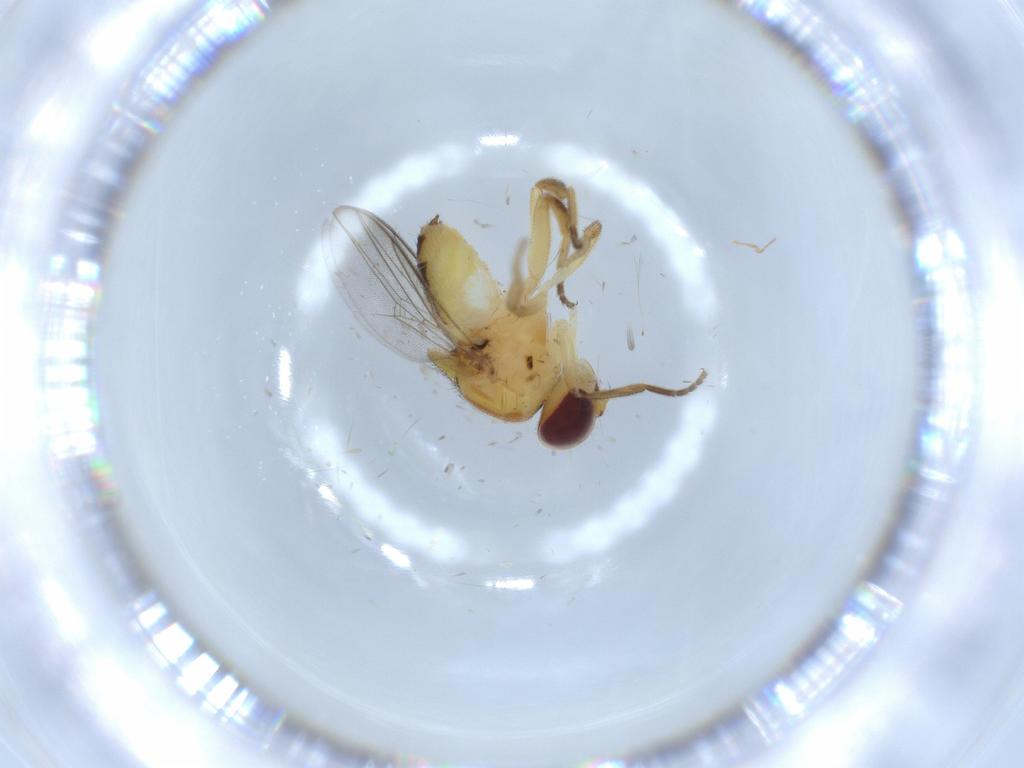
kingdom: Animalia
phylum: Arthropoda
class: Insecta
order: Diptera
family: Chloropidae
